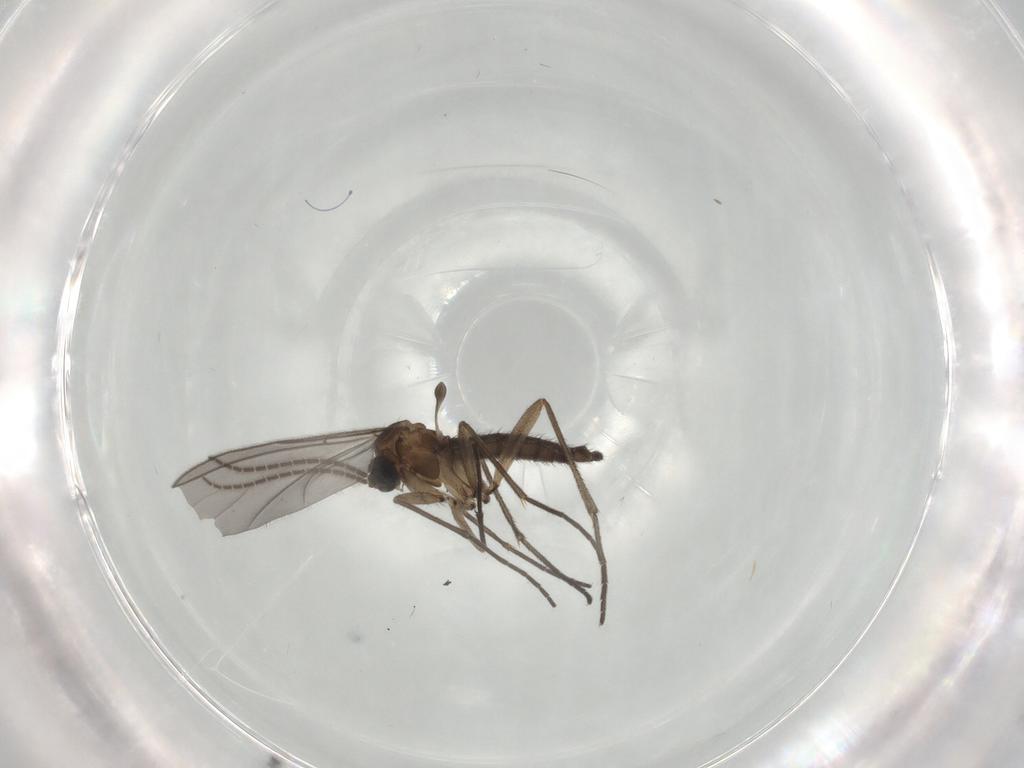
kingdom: Animalia
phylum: Arthropoda
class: Insecta
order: Diptera
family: Cecidomyiidae
